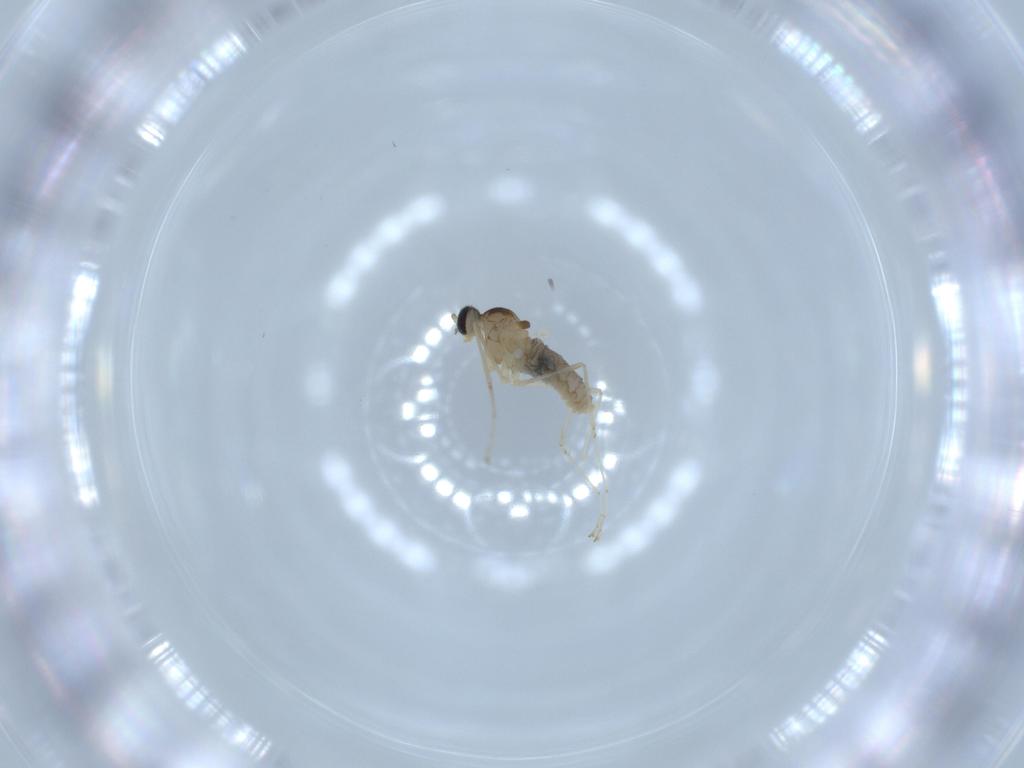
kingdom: Animalia
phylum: Arthropoda
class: Insecta
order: Diptera
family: Cecidomyiidae
